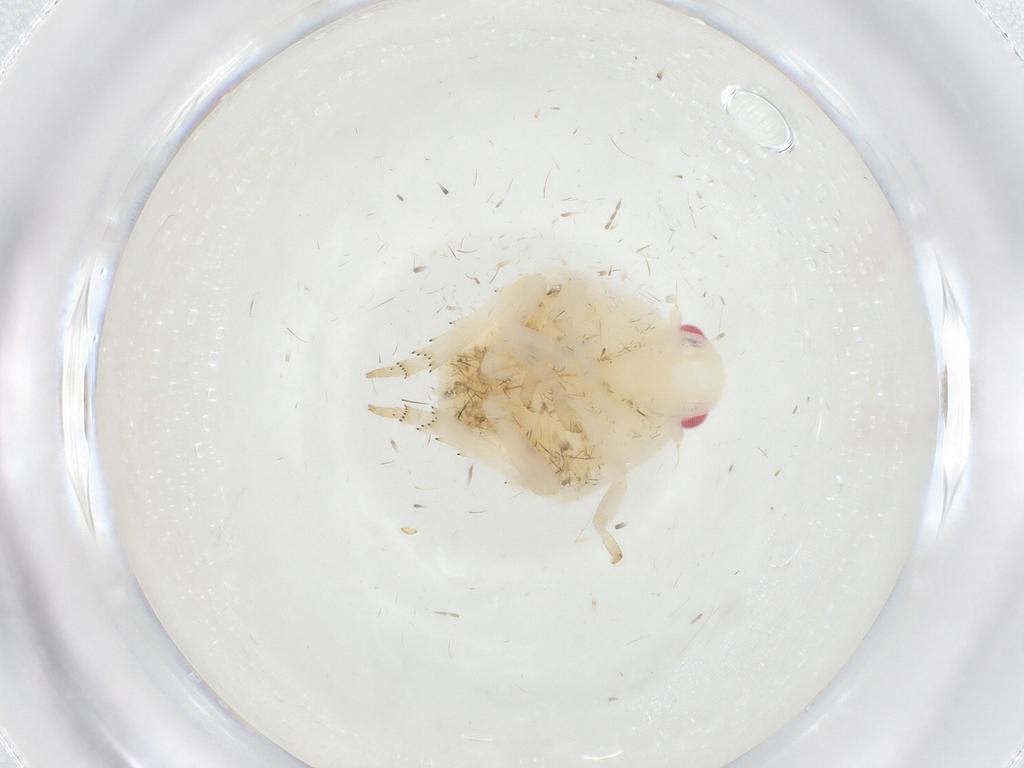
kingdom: Animalia
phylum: Arthropoda
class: Insecta
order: Hemiptera
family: Flatidae
